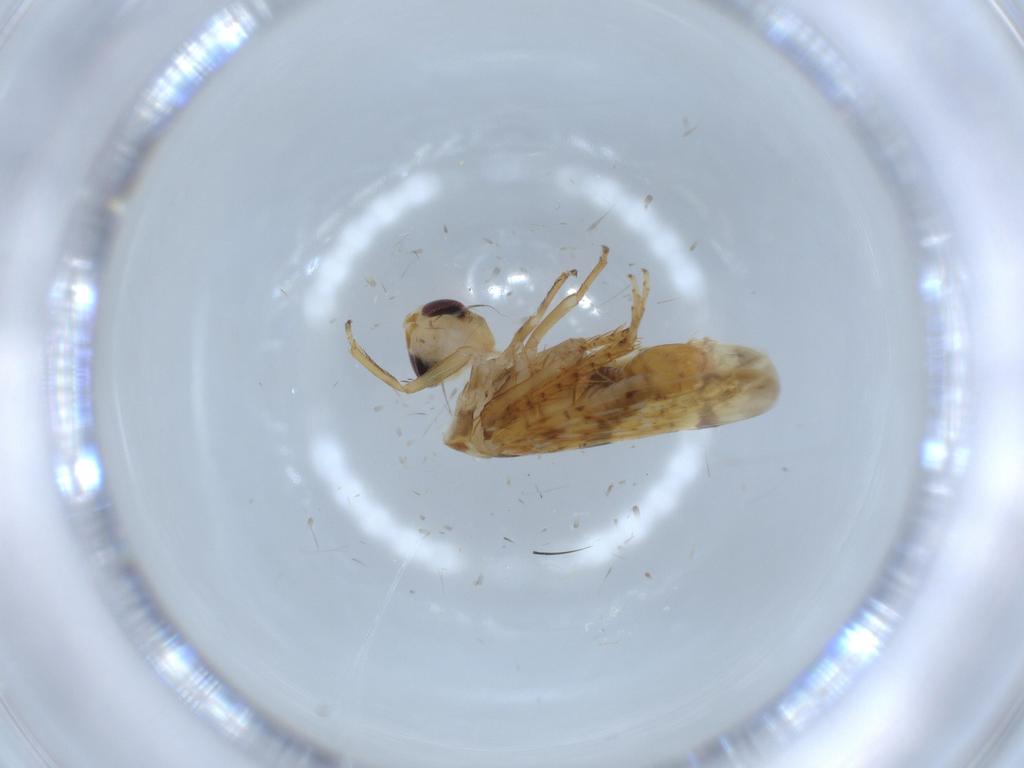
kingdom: Animalia
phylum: Arthropoda
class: Insecta
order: Hemiptera
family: Cicadellidae
